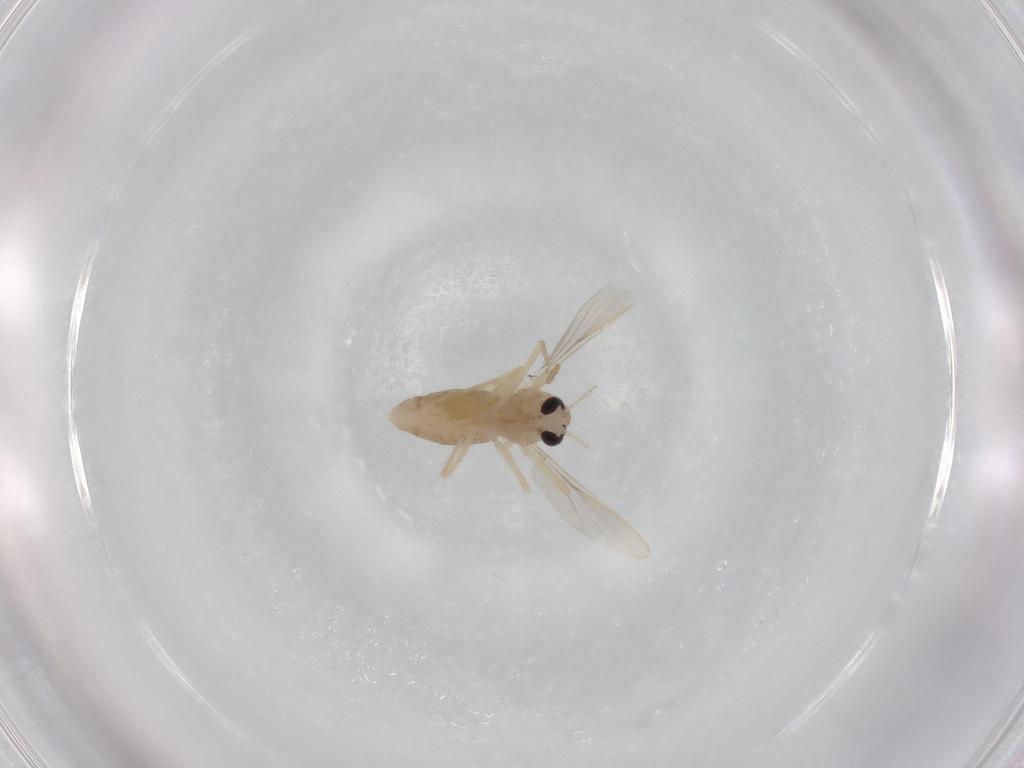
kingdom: Animalia
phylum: Arthropoda
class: Insecta
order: Diptera
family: Chironomidae
